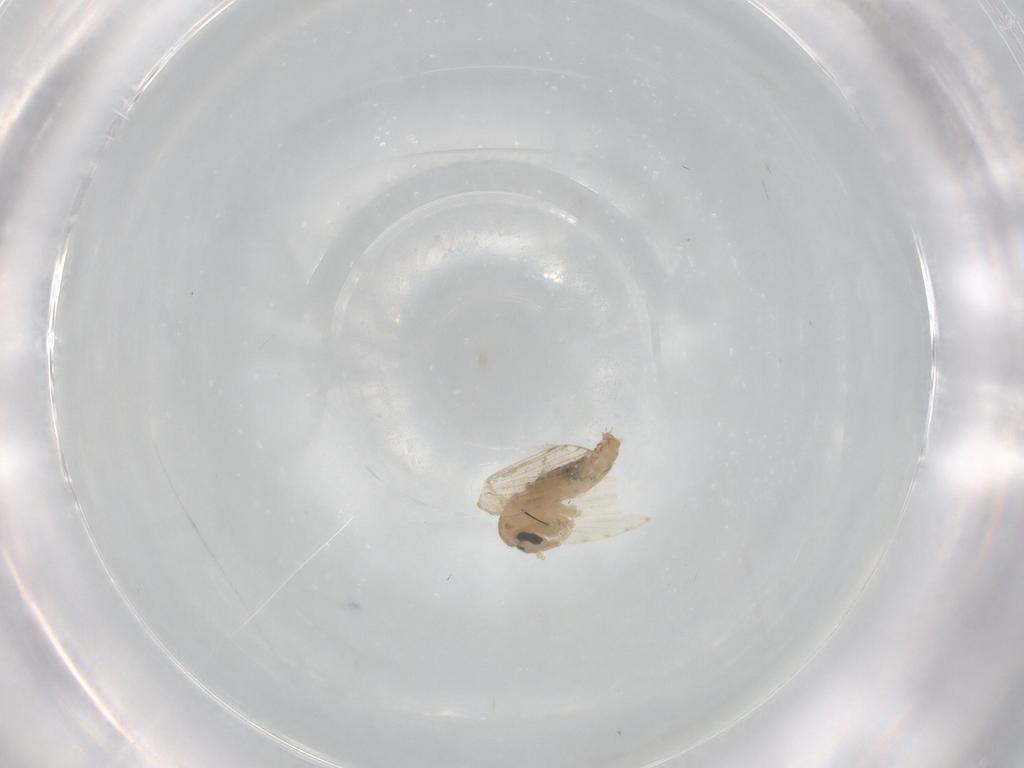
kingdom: Animalia
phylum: Arthropoda
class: Insecta
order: Diptera
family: Psychodidae
